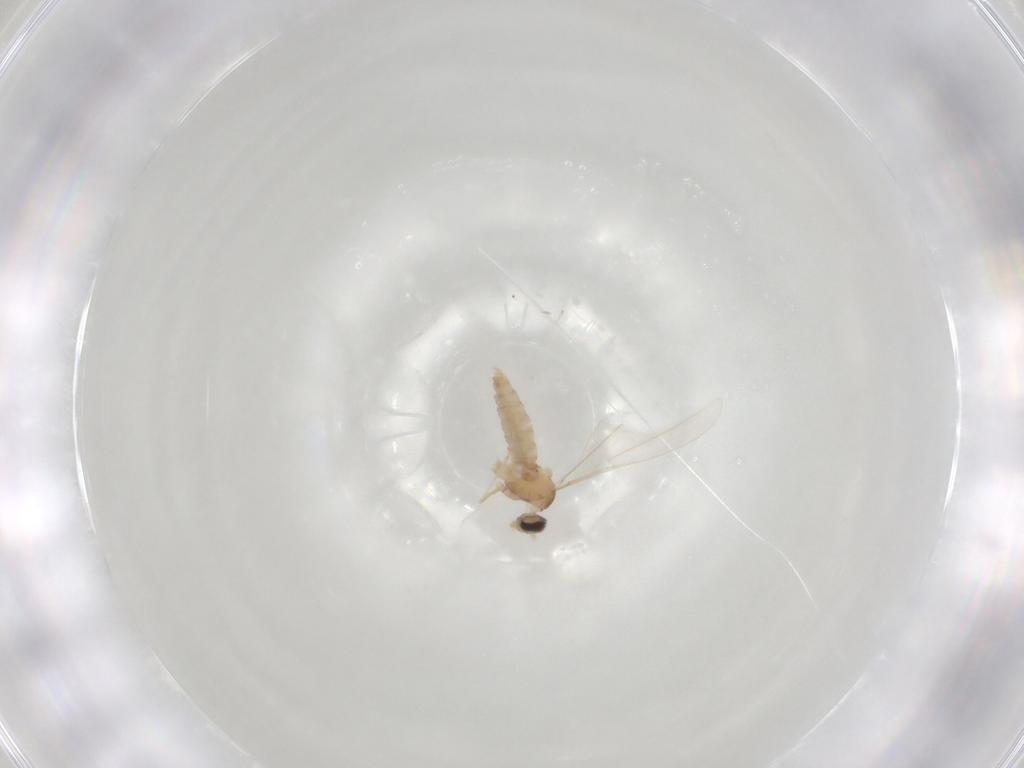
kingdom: Animalia
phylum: Arthropoda
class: Insecta
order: Diptera
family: Cecidomyiidae
